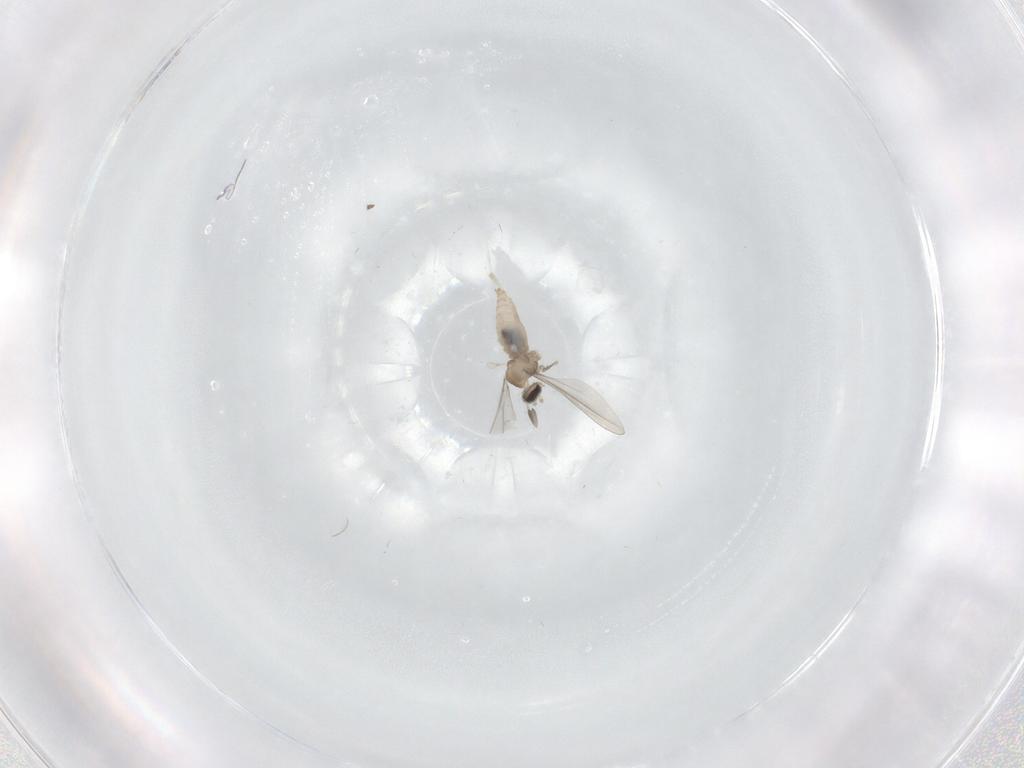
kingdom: Animalia
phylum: Arthropoda
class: Insecta
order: Diptera
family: Cecidomyiidae
